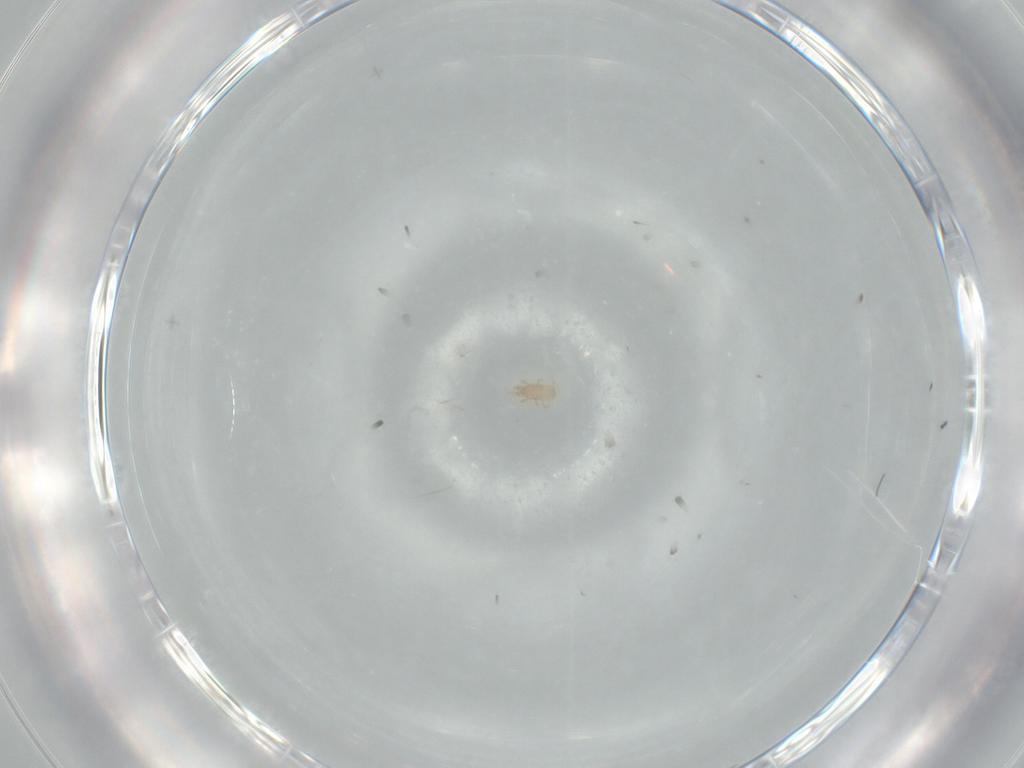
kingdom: Animalia
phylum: Arthropoda
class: Arachnida
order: Mesostigmata
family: Ascidae
